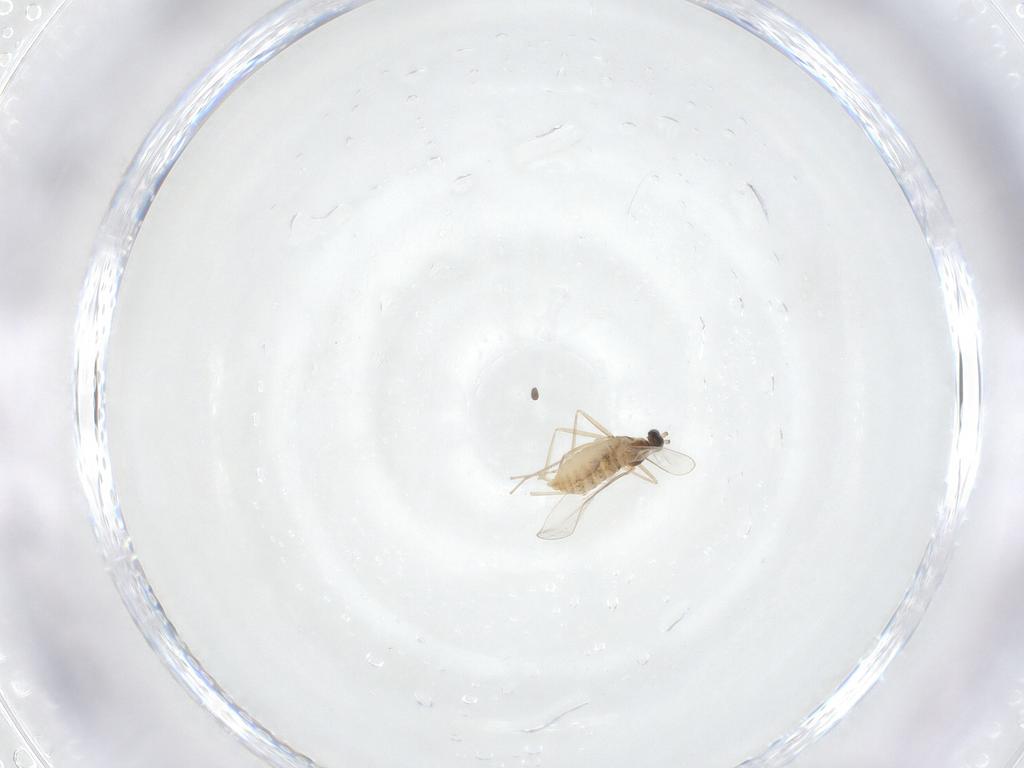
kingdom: Animalia
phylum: Arthropoda
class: Insecta
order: Diptera
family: Cecidomyiidae
